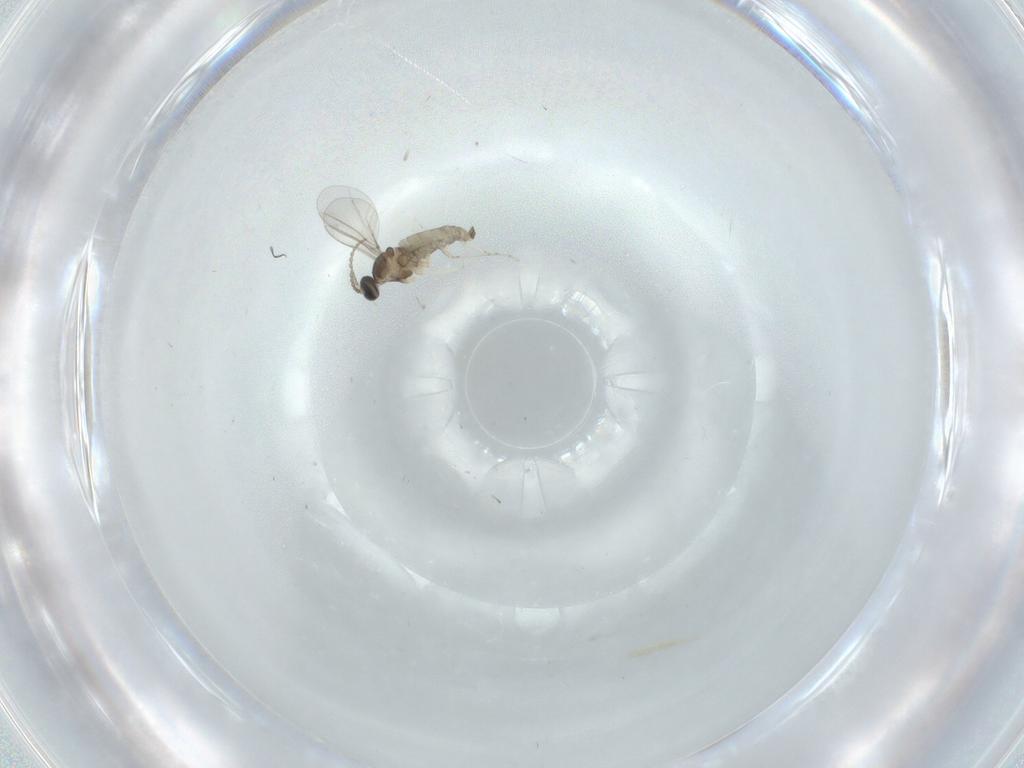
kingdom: Animalia
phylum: Arthropoda
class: Insecta
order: Diptera
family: Cecidomyiidae
